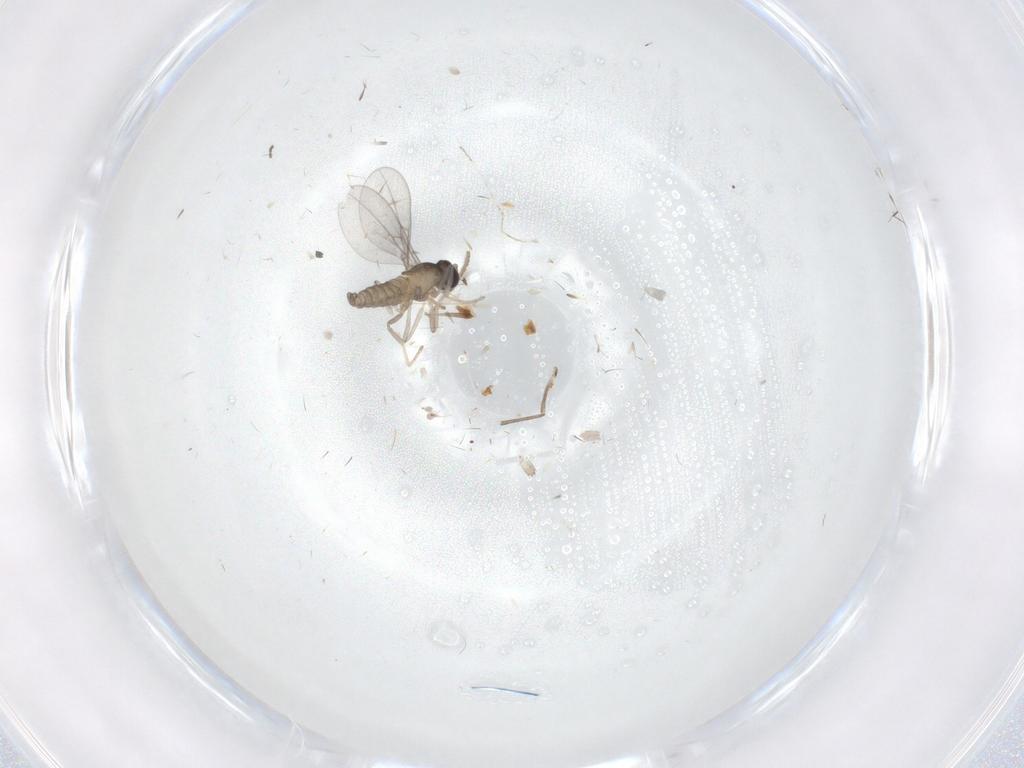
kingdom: Animalia
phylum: Arthropoda
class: Insecta
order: Diptera
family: Cecidomyiidae
